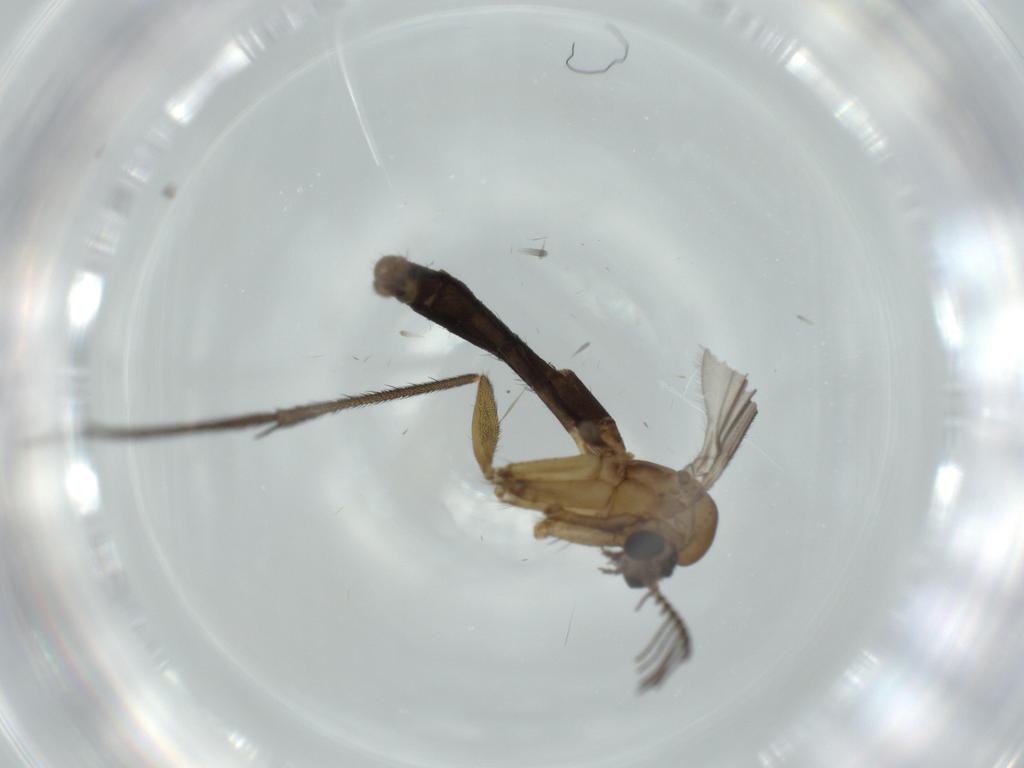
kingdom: Animalia
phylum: Arthropoda
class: Insecta
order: Diptera
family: Chironomidae
